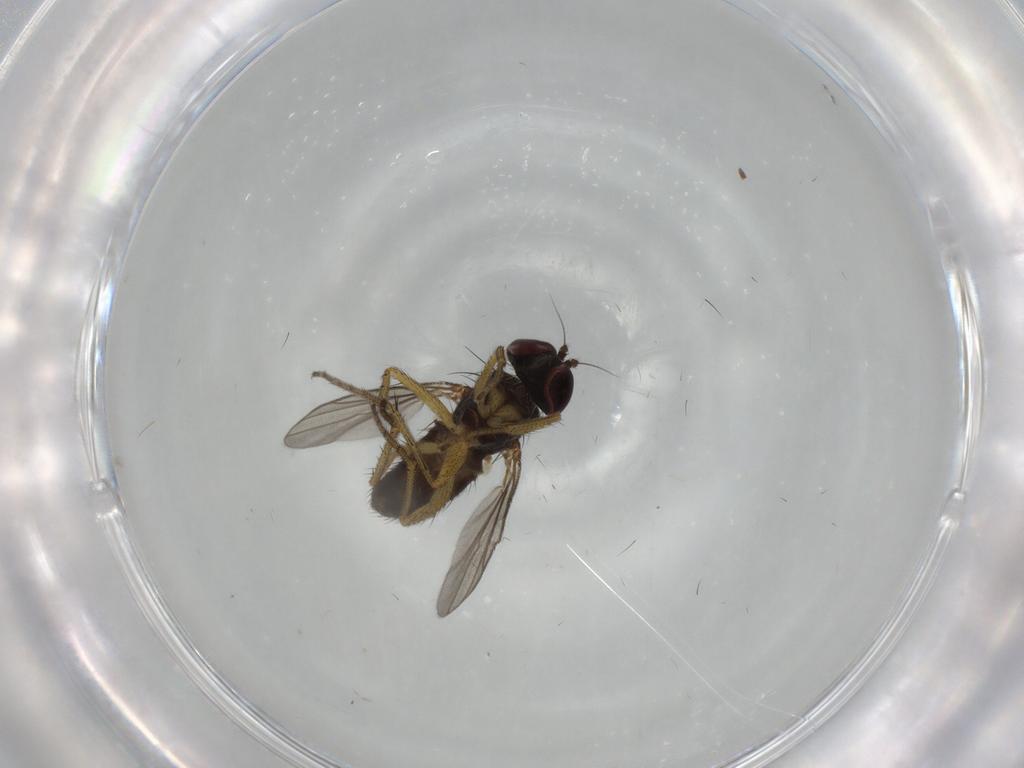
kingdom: Animalia
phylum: Arthropoda
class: Insecta
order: Diptera
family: Dolichopodidae
